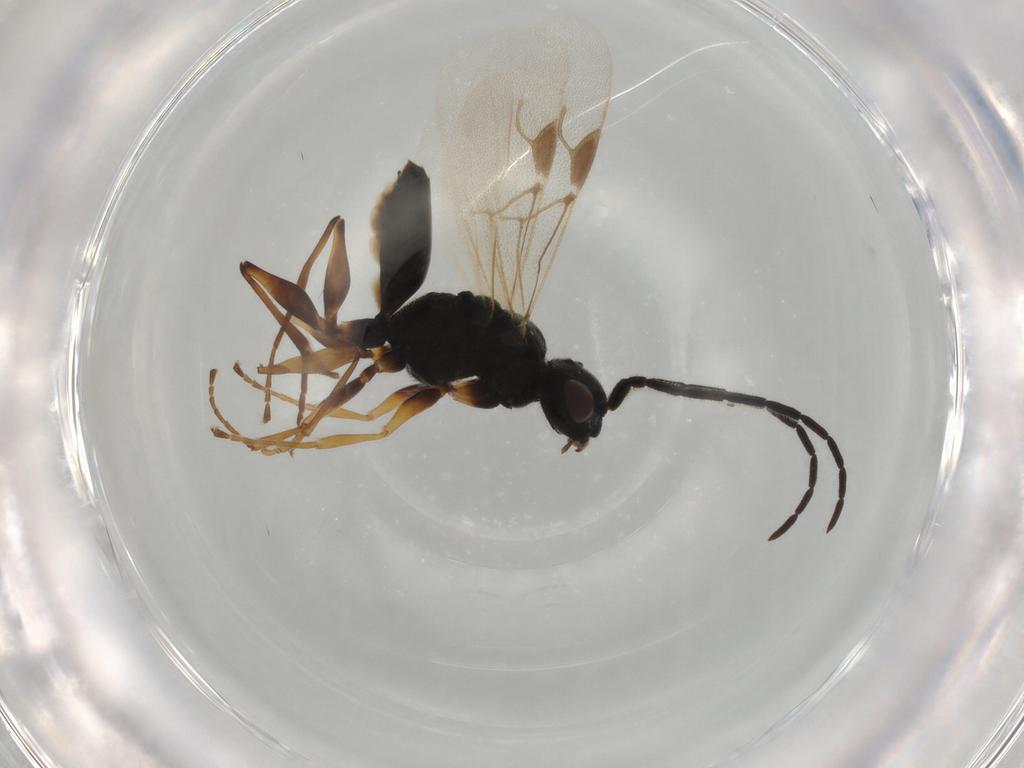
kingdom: Animalia
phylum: Arthropoda
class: Insecta
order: Hymenoptera
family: Dryinidae
